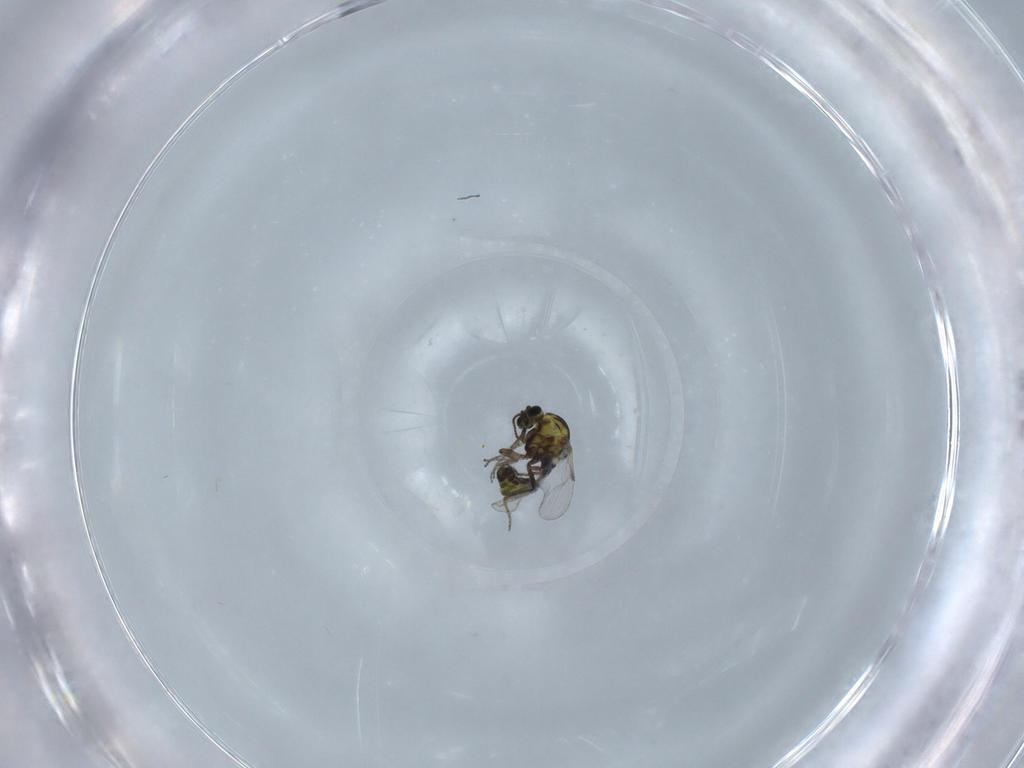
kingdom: Animalia
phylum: Arthropoda
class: Insecta
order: Diptera
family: Ceratopogonidae
